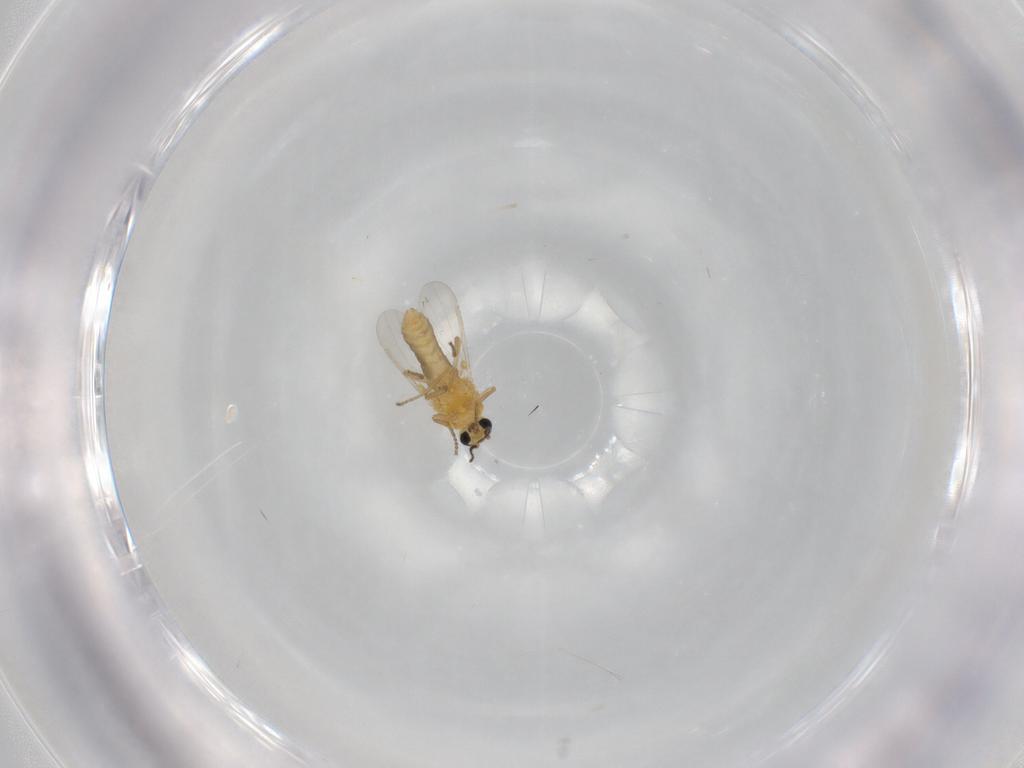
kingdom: Animalia
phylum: Arthropoda
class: Insecta
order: Diptera
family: Ceratopogonidae
